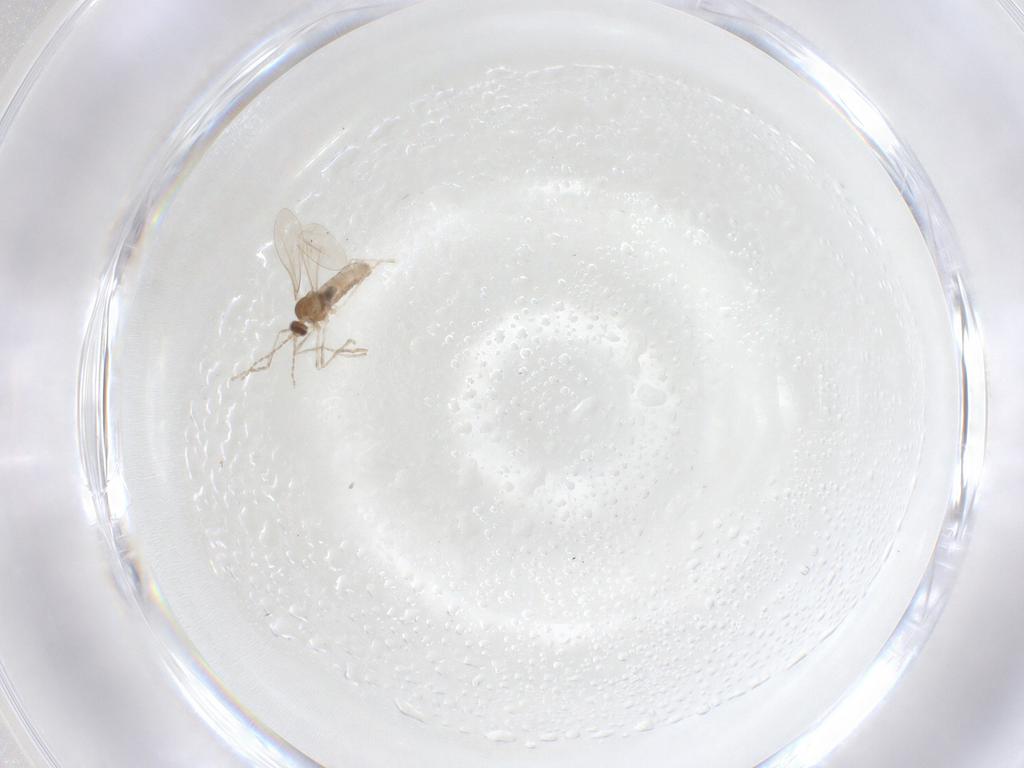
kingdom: Animalia
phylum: Arthropoda
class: Insecta
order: Diptera
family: Cecidomyiidae
